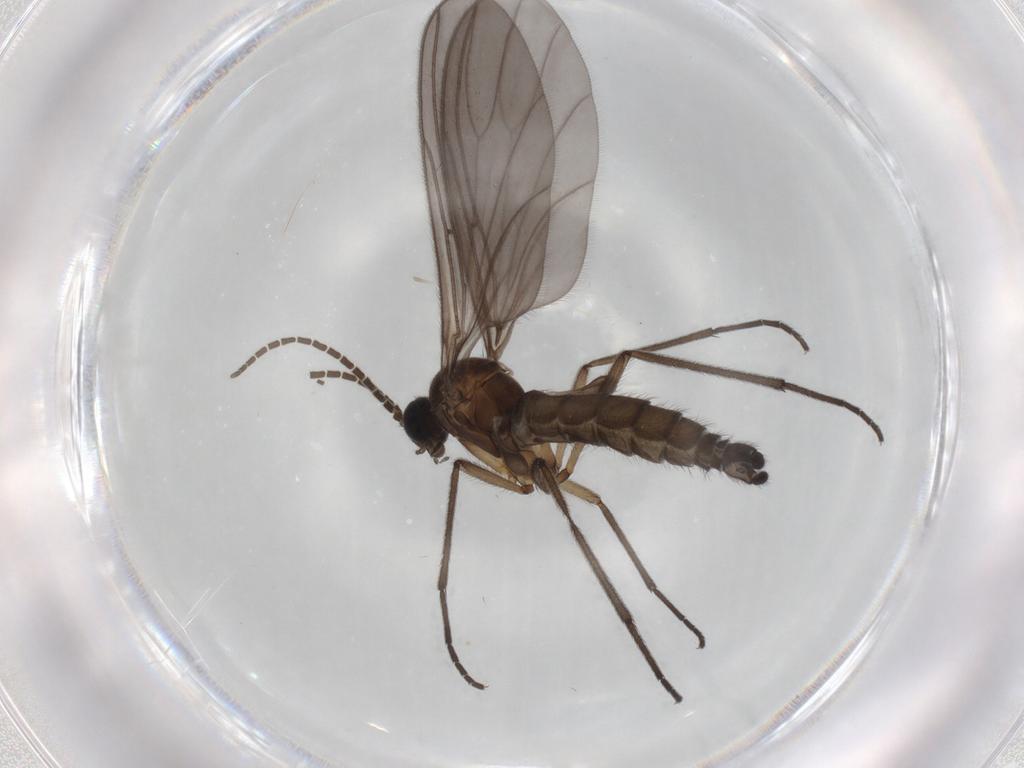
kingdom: Animalia
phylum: Arthropoda
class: Insecta
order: Diptera
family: Sciaridae
